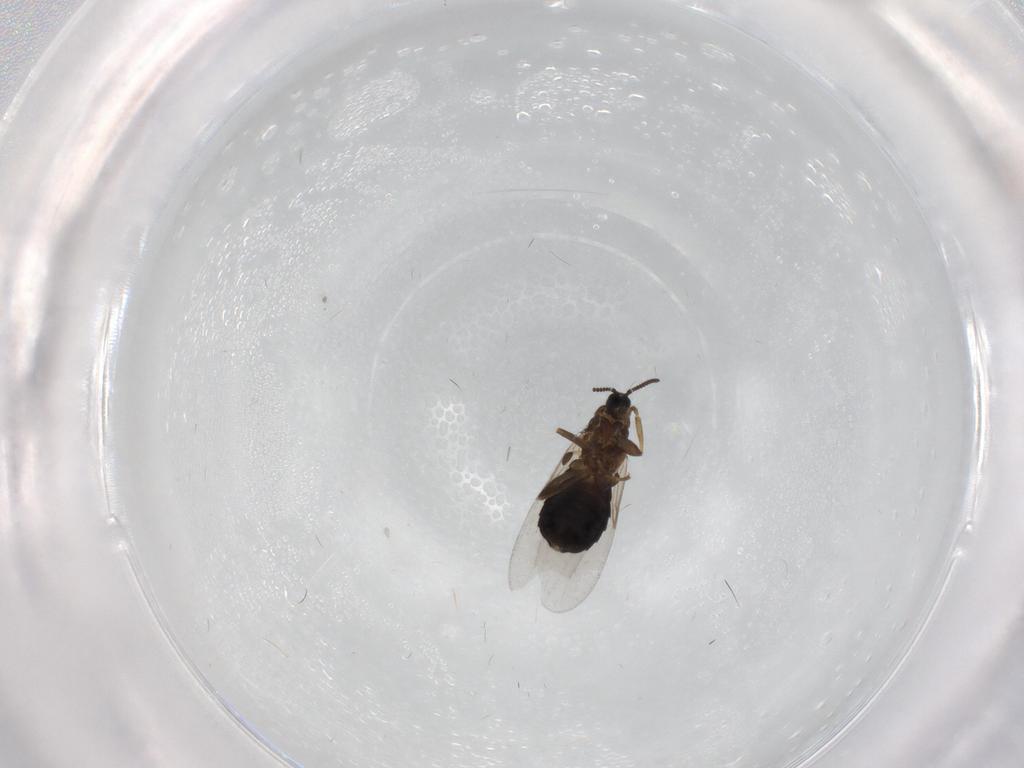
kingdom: Animalia
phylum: Arthropoda
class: Insecta
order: Diptera
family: Scatopsidae
